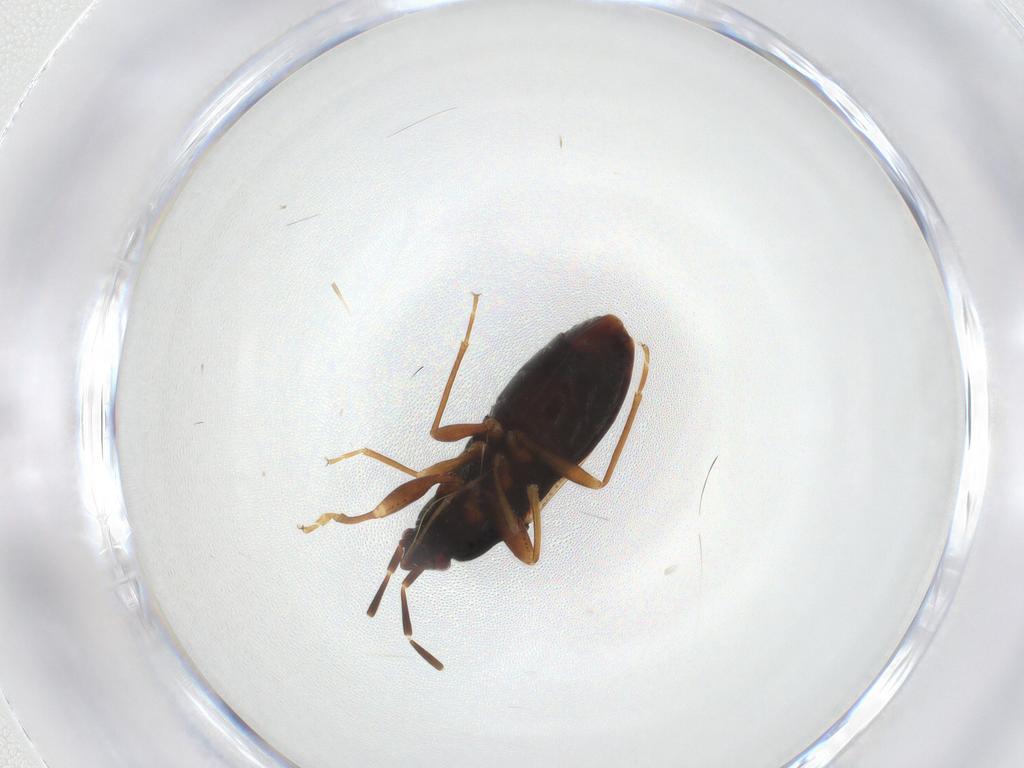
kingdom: Animalia
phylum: Arthropoda
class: Insecta
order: Hemiptera
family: Rhyparochromidae
